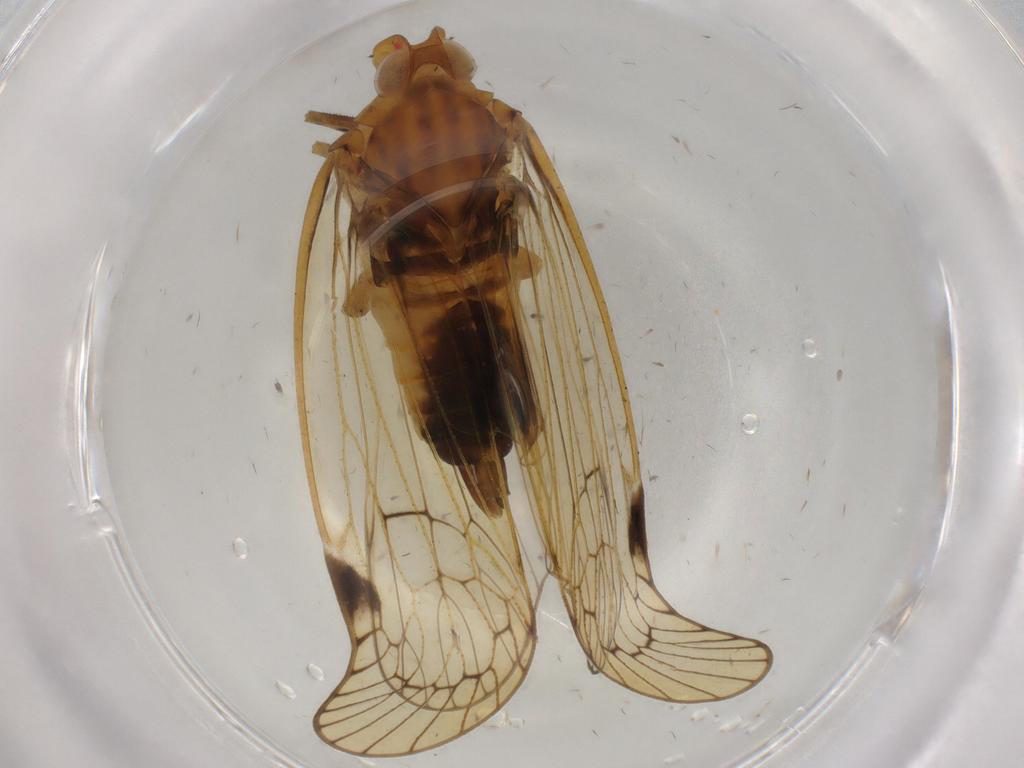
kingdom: Animalia
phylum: Arthropoda
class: Insecta
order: Hemiptera
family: Cixiidae
